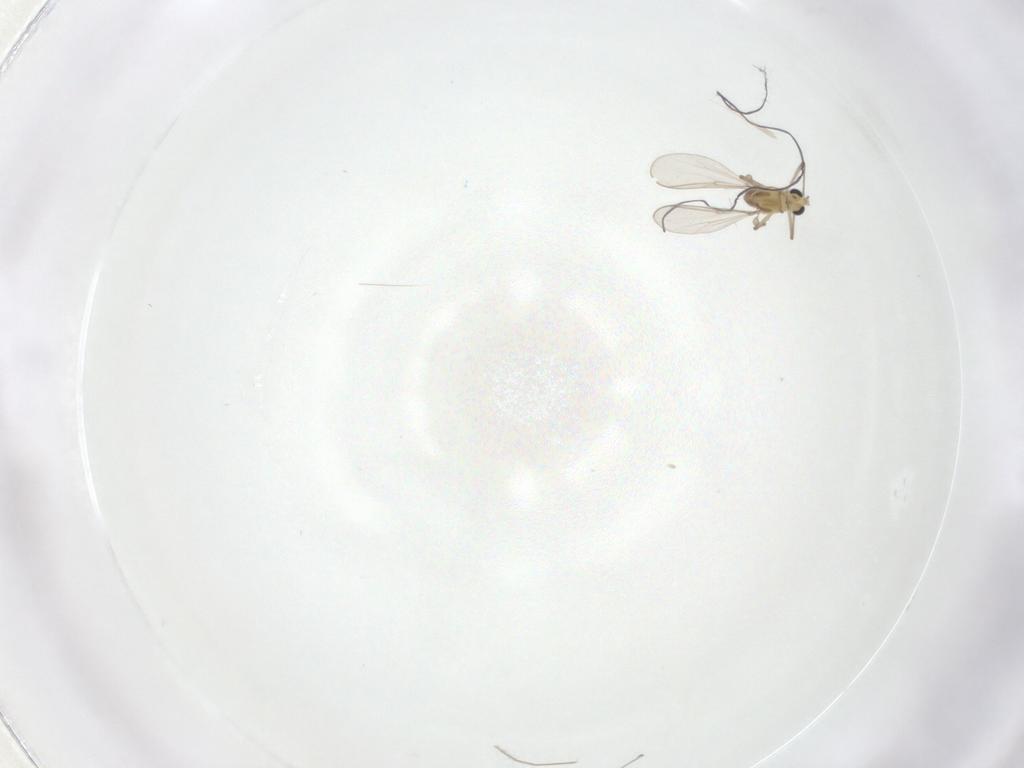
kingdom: Animalia
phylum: Arthropoda
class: Insecta
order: Diptera
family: Chironomidae
